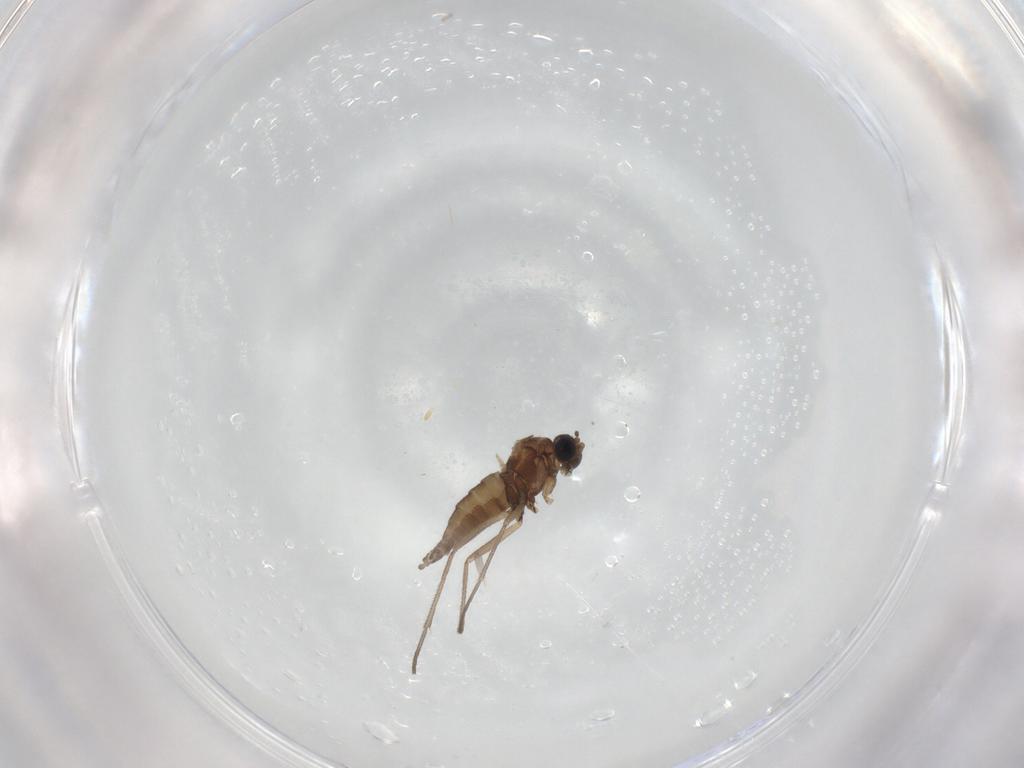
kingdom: Animalia
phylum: Arthropoda
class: Insecta
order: Diptera
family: Sciaridae
